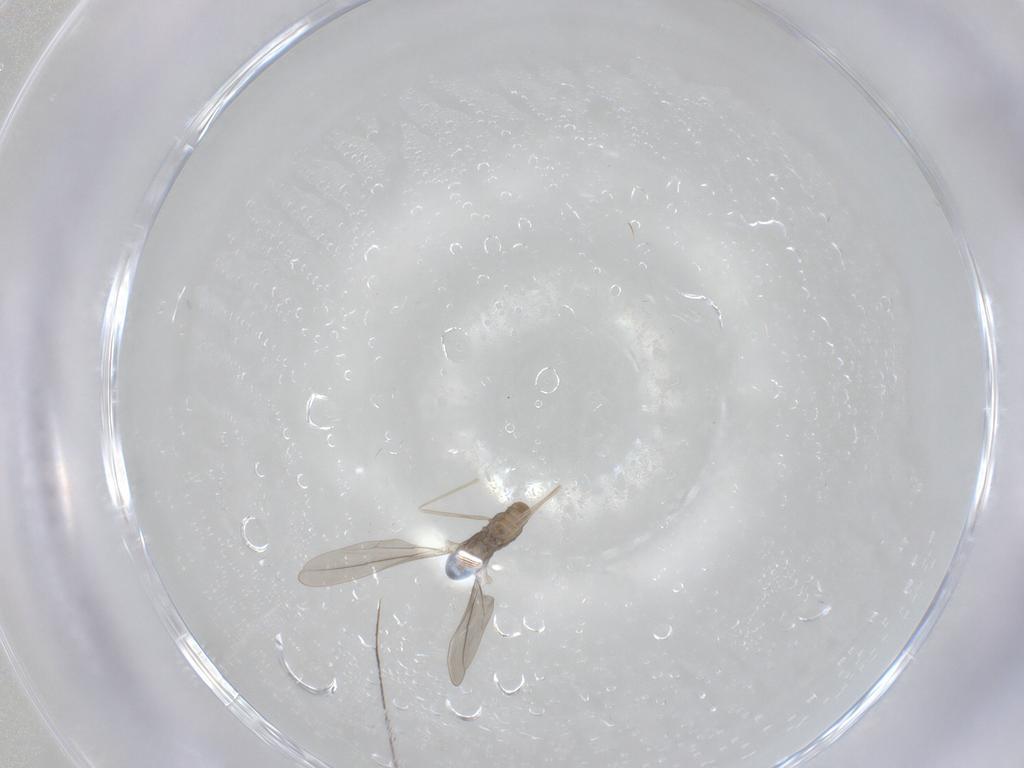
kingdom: Animalia
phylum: Arthropoda
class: Insecta
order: Diptera
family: Cecidomyiidae
